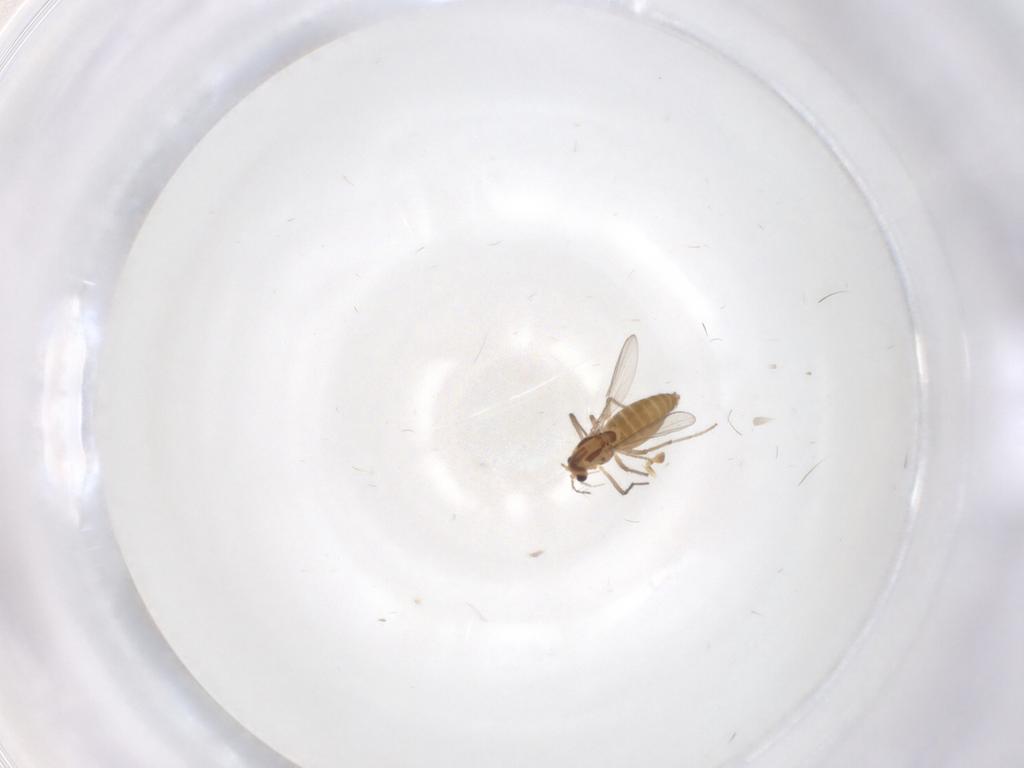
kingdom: Animalia
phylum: Arthropoda
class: Insecta
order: Diptera
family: Chironomidae
